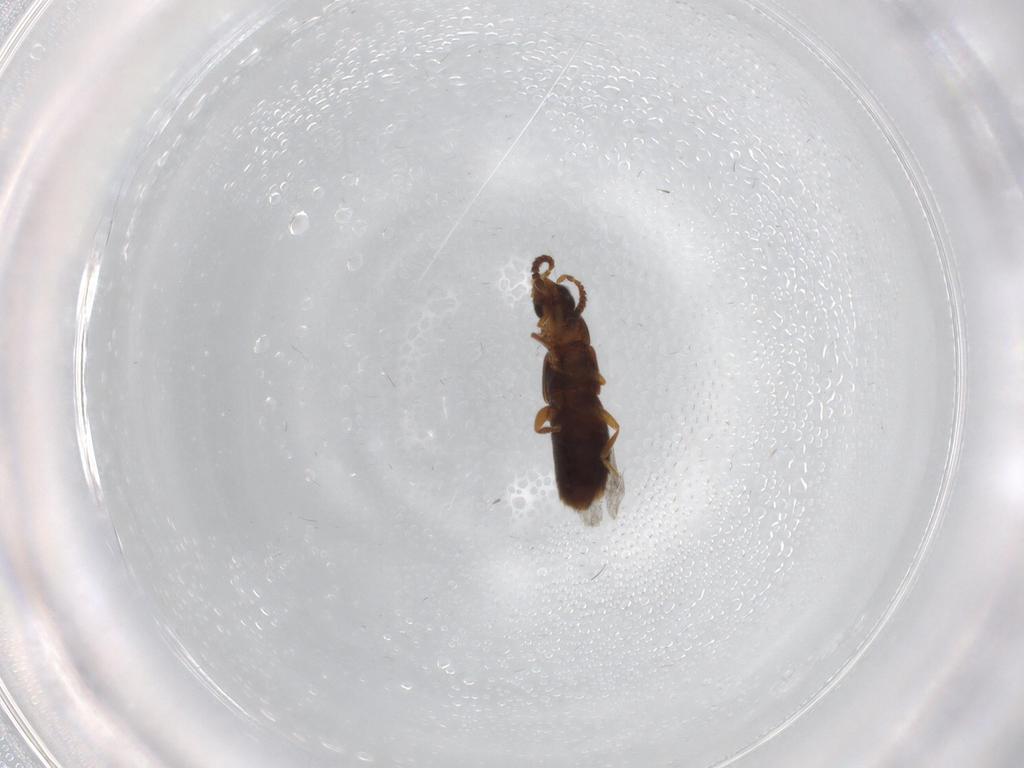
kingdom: Animalia
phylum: Arthropoda
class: Insecta
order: Coleoptera
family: Staphylinidae
